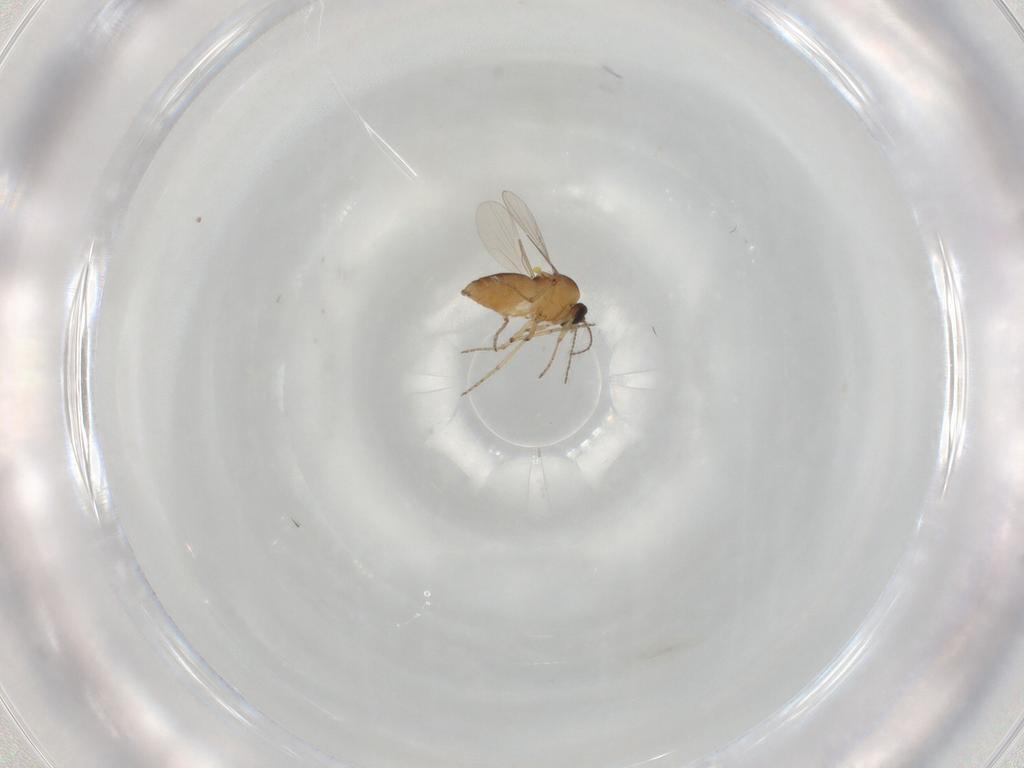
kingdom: Animalia
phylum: Arthropoda
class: Insecta
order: Diptera
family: Ceratopogonidae
